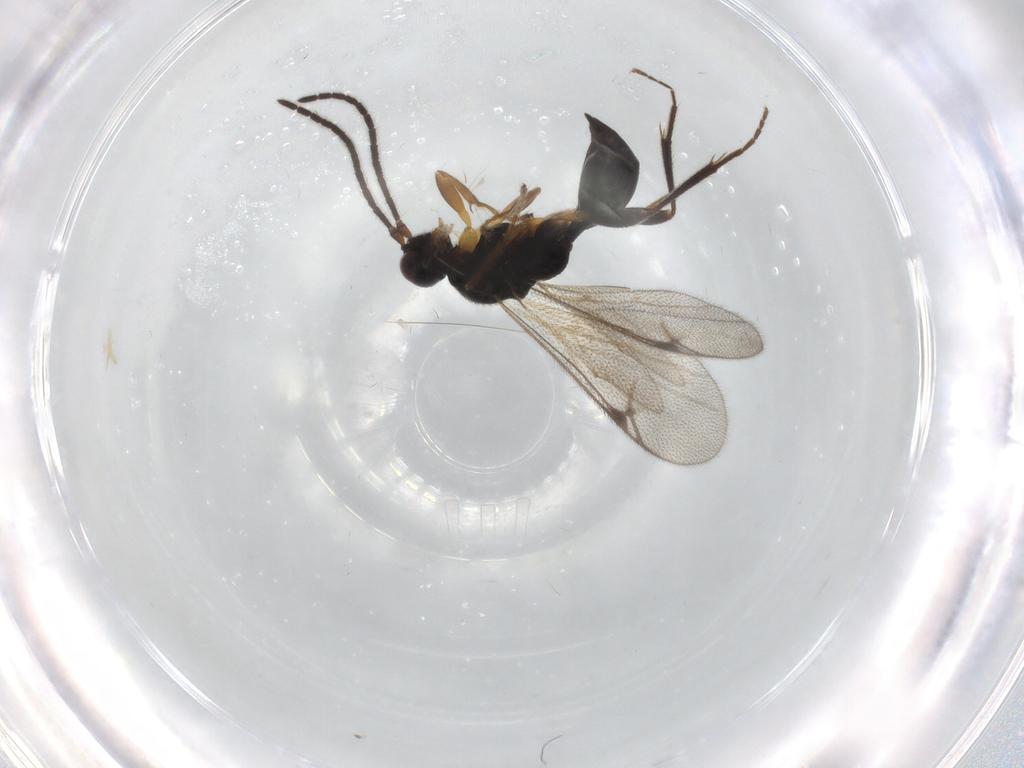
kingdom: Animalia
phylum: Arthropoda
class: Insecta
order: Hymenoptera
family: Proctotrupidae
